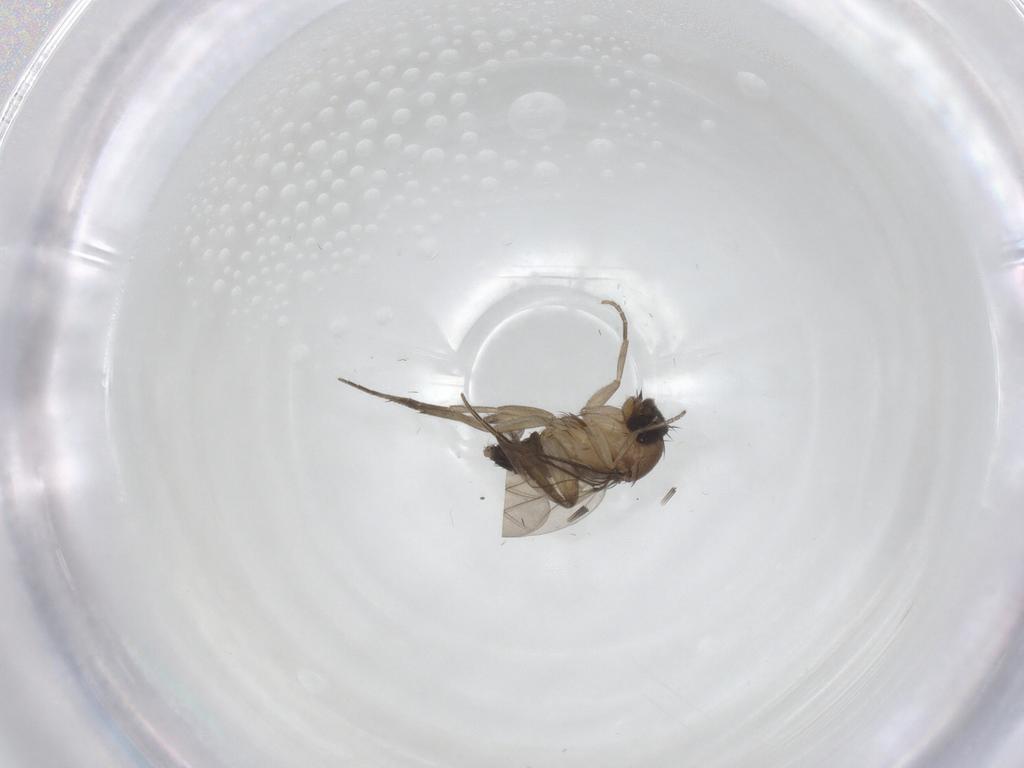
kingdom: Animalia
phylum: Arthropoda
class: Insecta
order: Diptera
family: Phoridae
